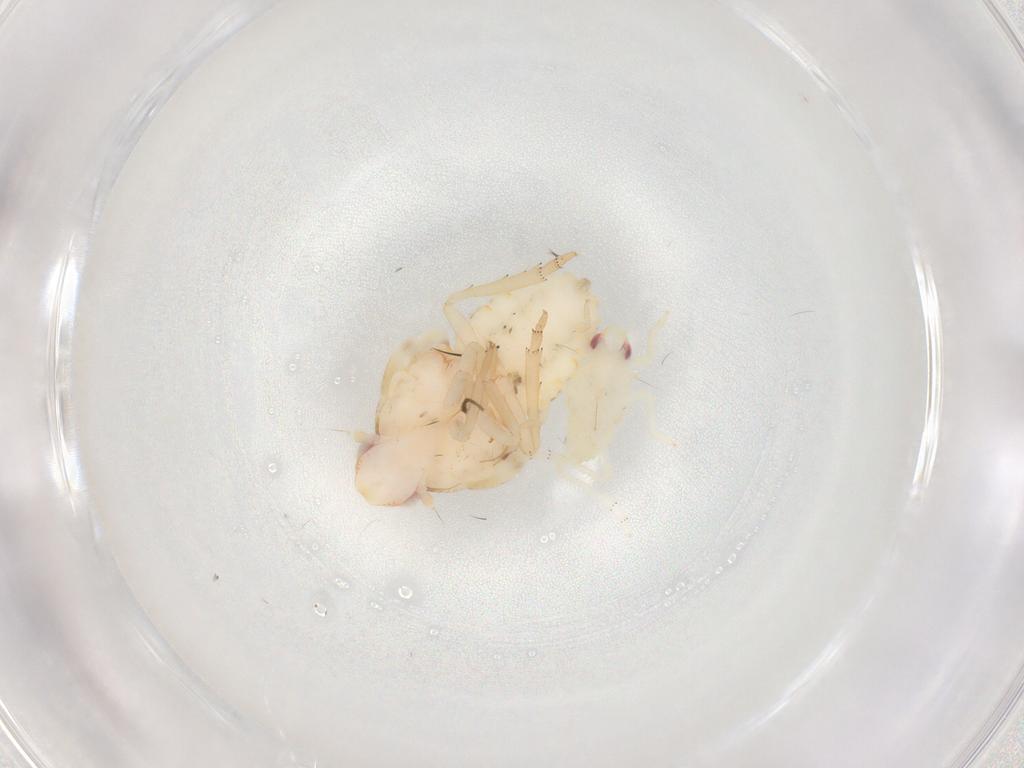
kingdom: Animalia
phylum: Arthropoda
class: Insecta
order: Hemiptera
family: Flatidae
